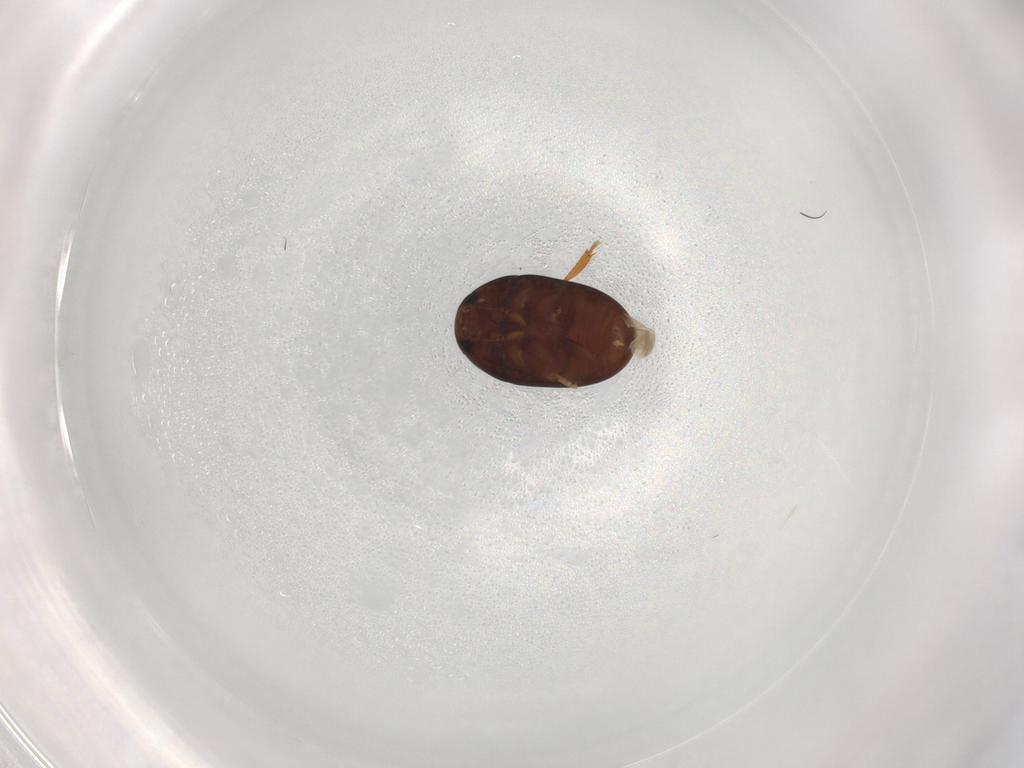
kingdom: Animalia
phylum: Arthropoda
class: Insecta
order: Coleoptera
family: Phalacridae
